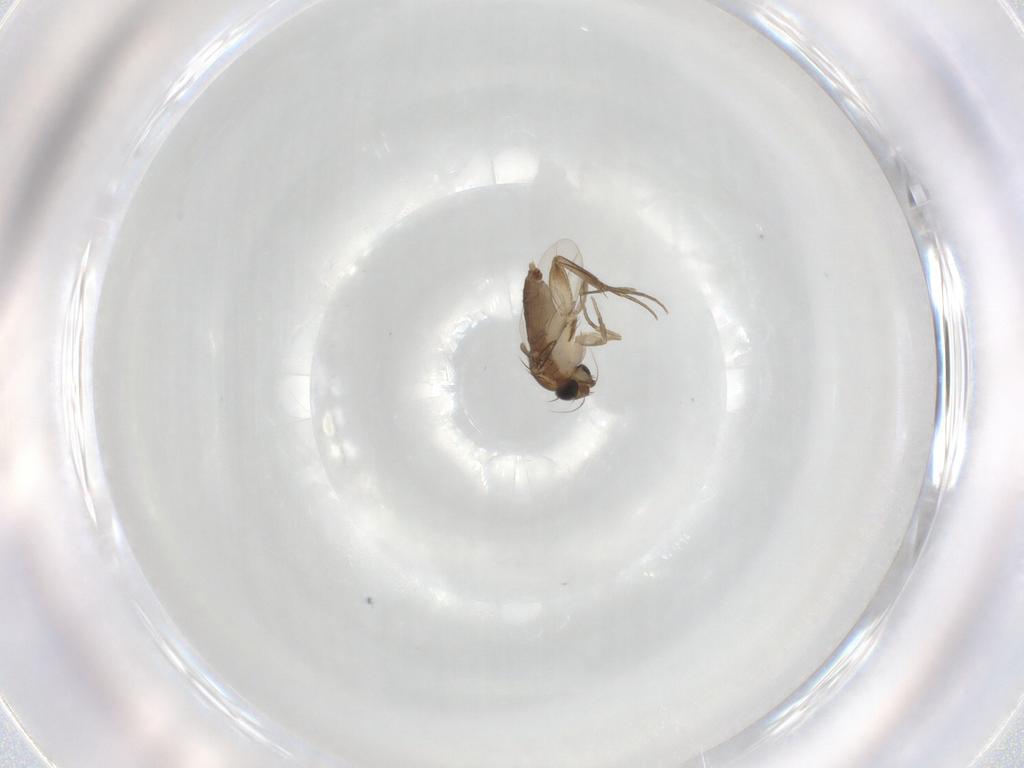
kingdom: Animalia
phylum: Arthropoda
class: Insecta
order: Diptera
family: Phoridae
